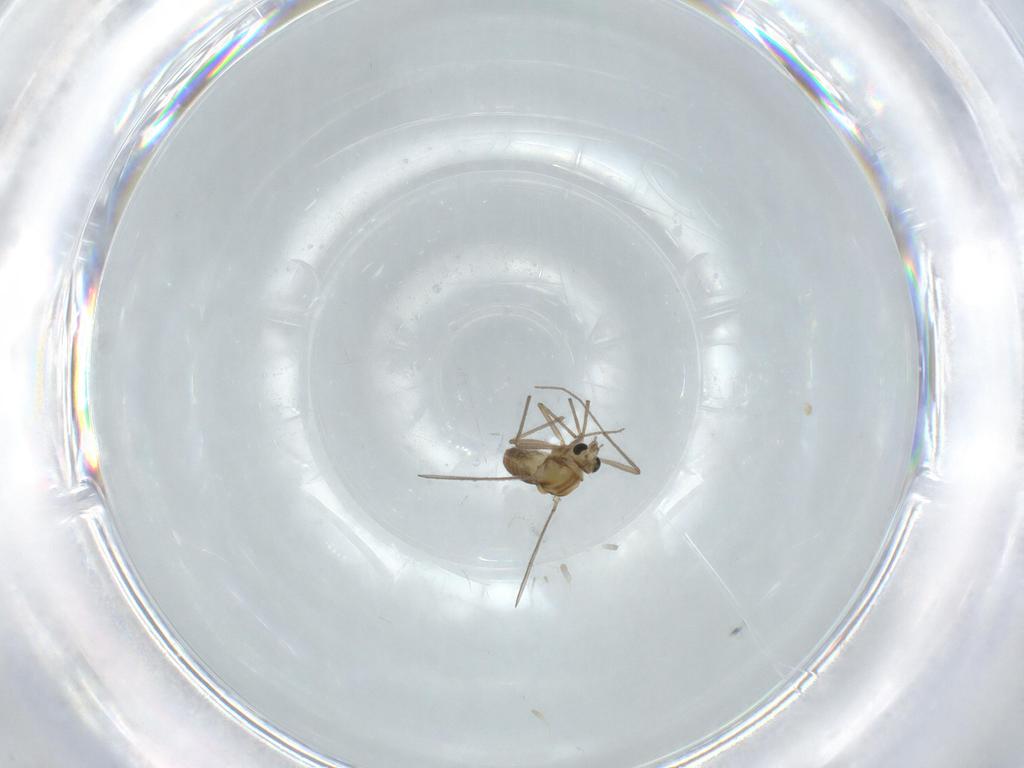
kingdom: Animalia
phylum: Arthropoda
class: Insecta
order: Diptera
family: Chironomidae
